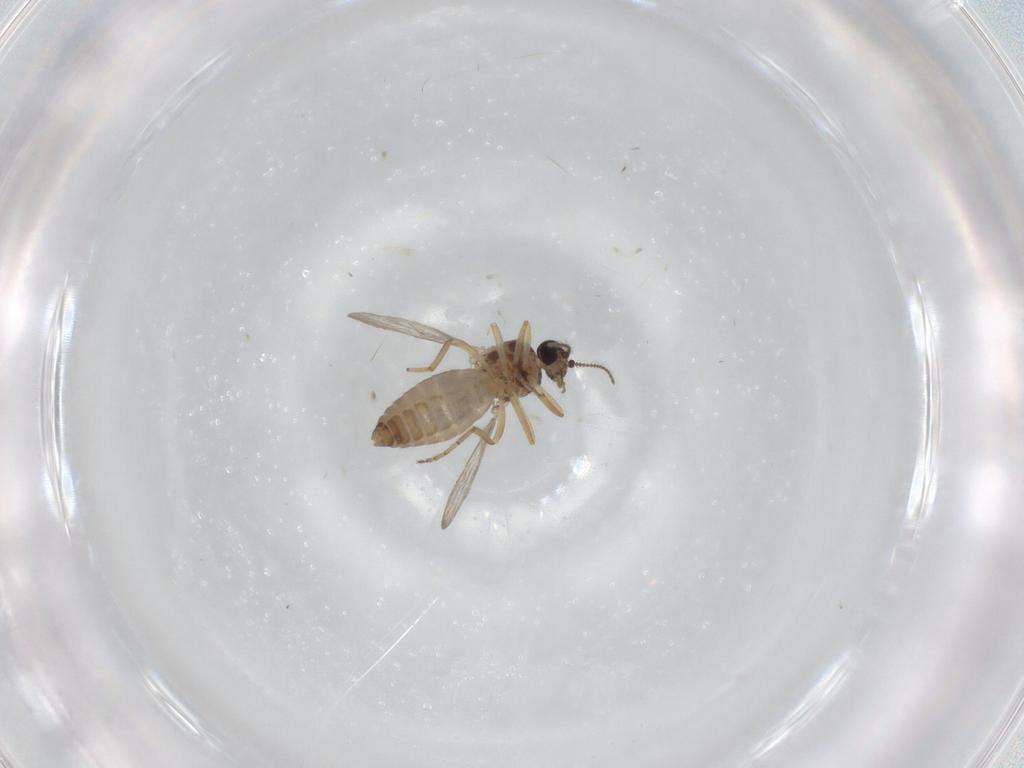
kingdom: Animalia
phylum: Arthropoda
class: Insecta
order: Diptera
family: Ceratopogonidae
